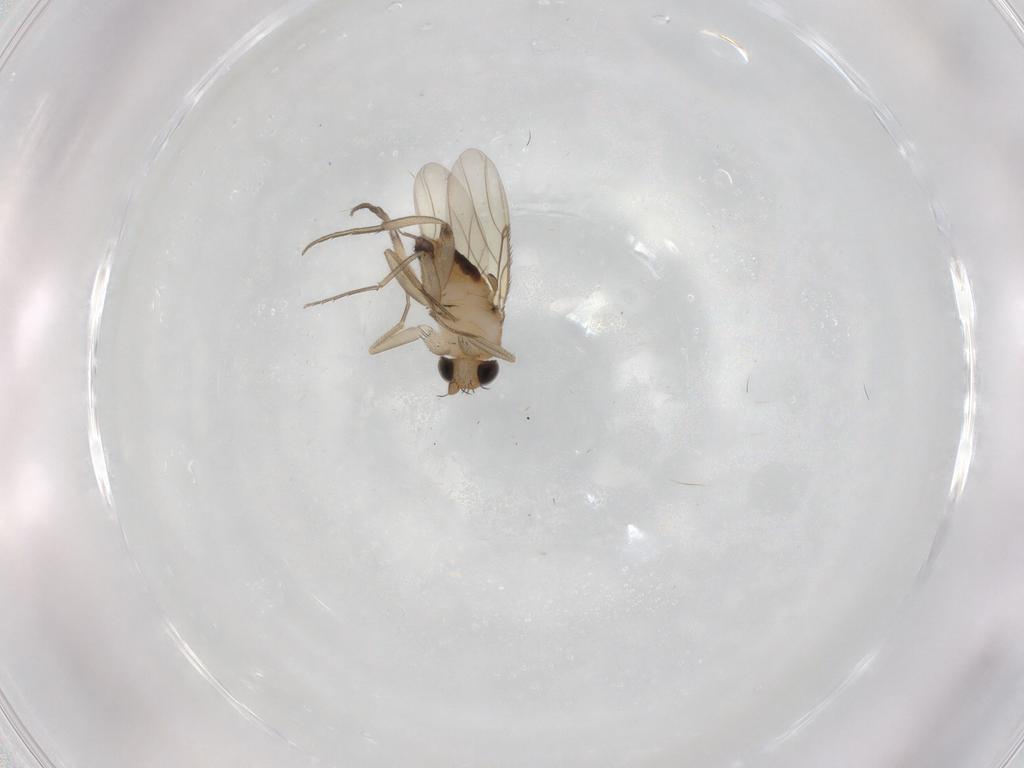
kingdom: Animalia
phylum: Arthropoda
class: Insecta
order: Diptera
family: Phoridae
